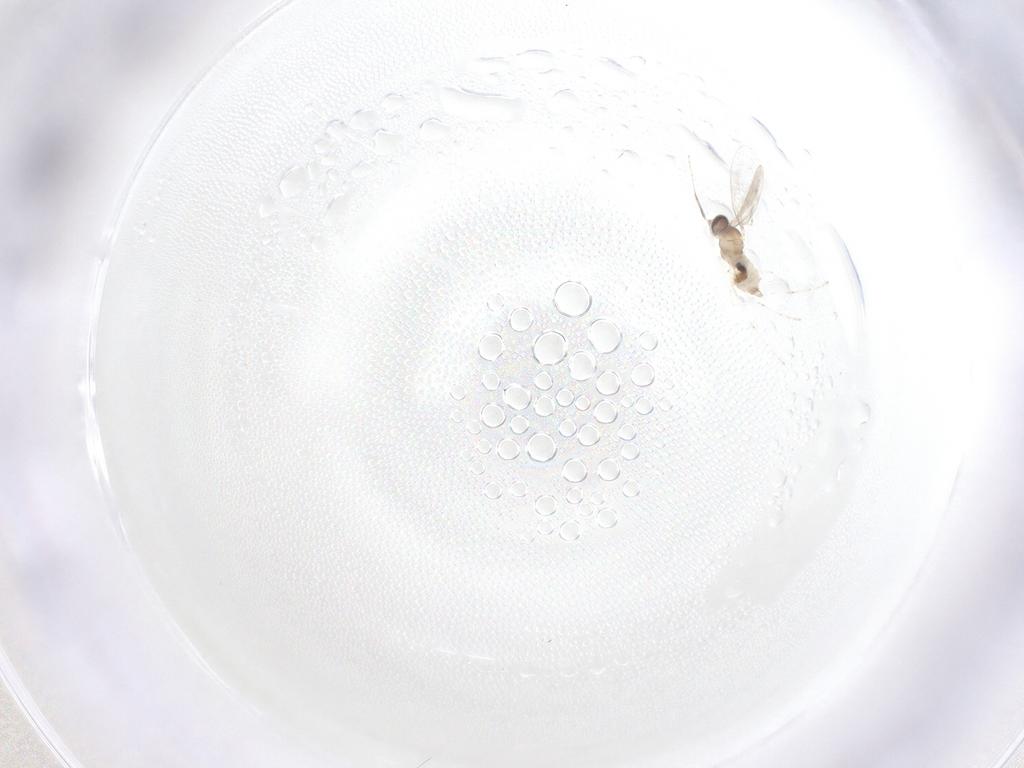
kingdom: Animalia
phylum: Arthropoda
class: Insecta
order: Diptera
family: Cecidomyiidae
